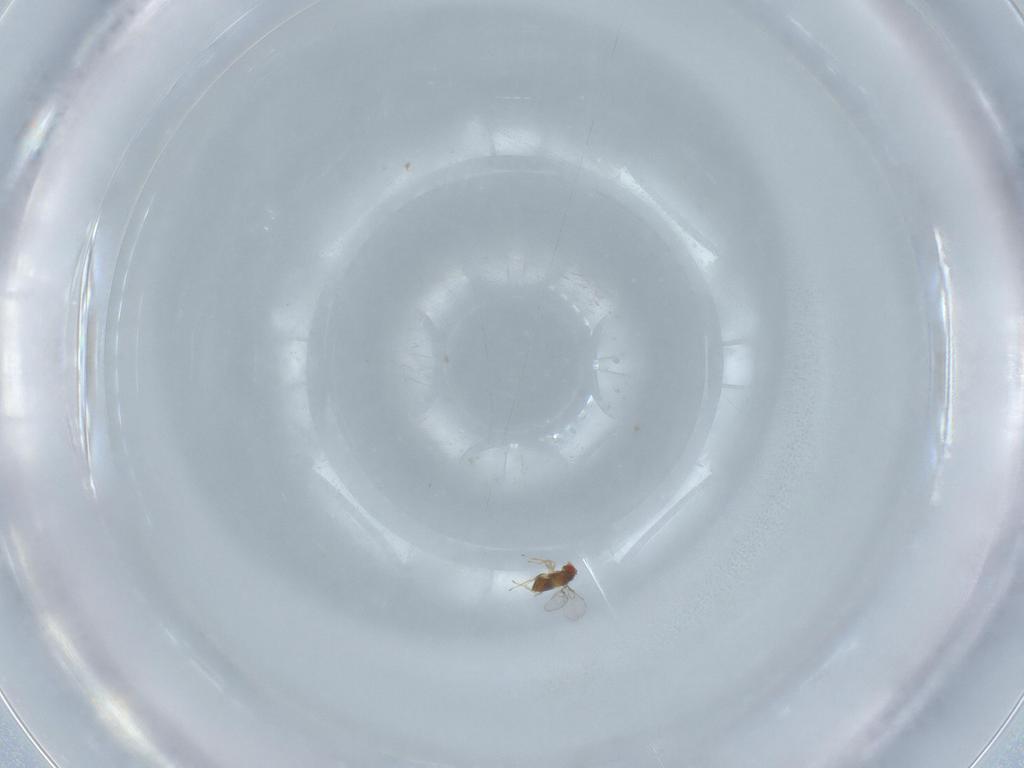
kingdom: Animalia
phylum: Arthropoda
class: Insecta
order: Hymenoptera
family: Trichogrammatidae
